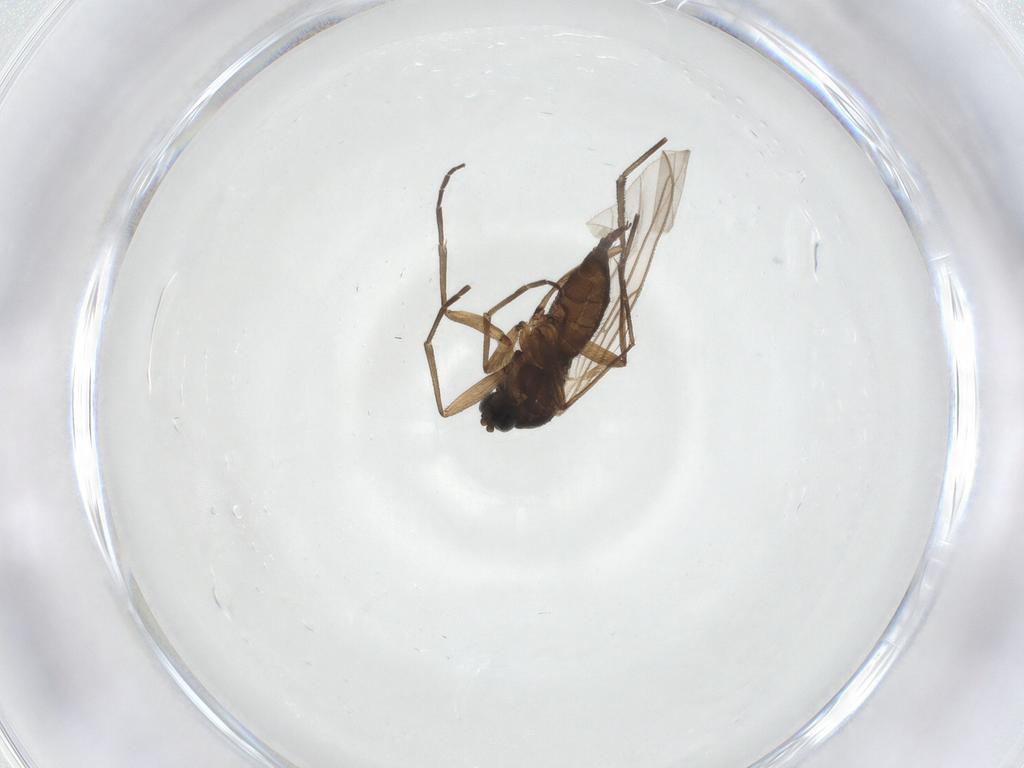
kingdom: Animalia
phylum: Arthropoda
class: Insecta
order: Diptera
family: Sciaridae
